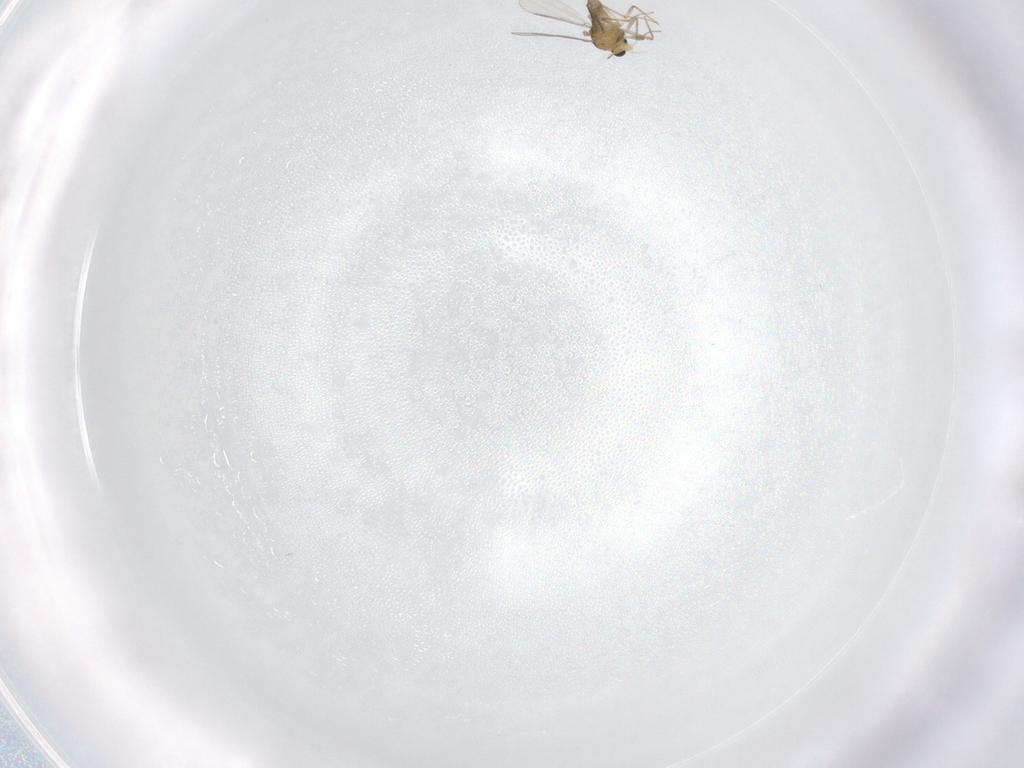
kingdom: Animalia
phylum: Arthropoda
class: Insecta
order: Diptera
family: Chironomidae
